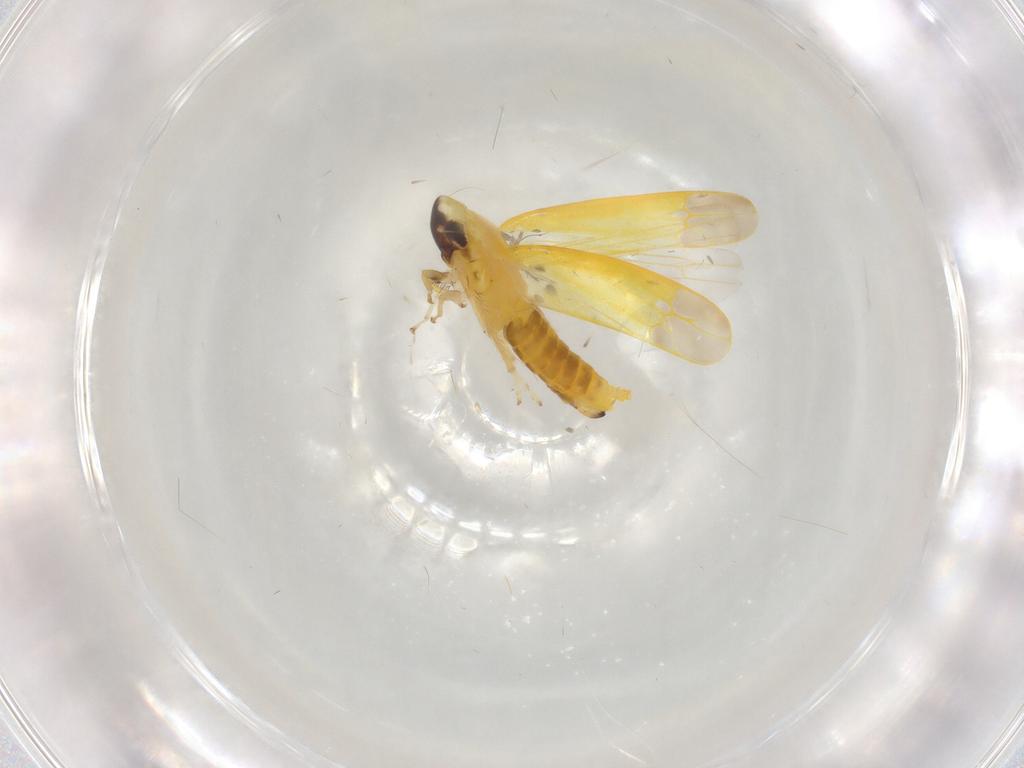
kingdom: Animalia
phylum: Arthropoda
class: Insecta
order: Hemiptera
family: Cicadellidae
